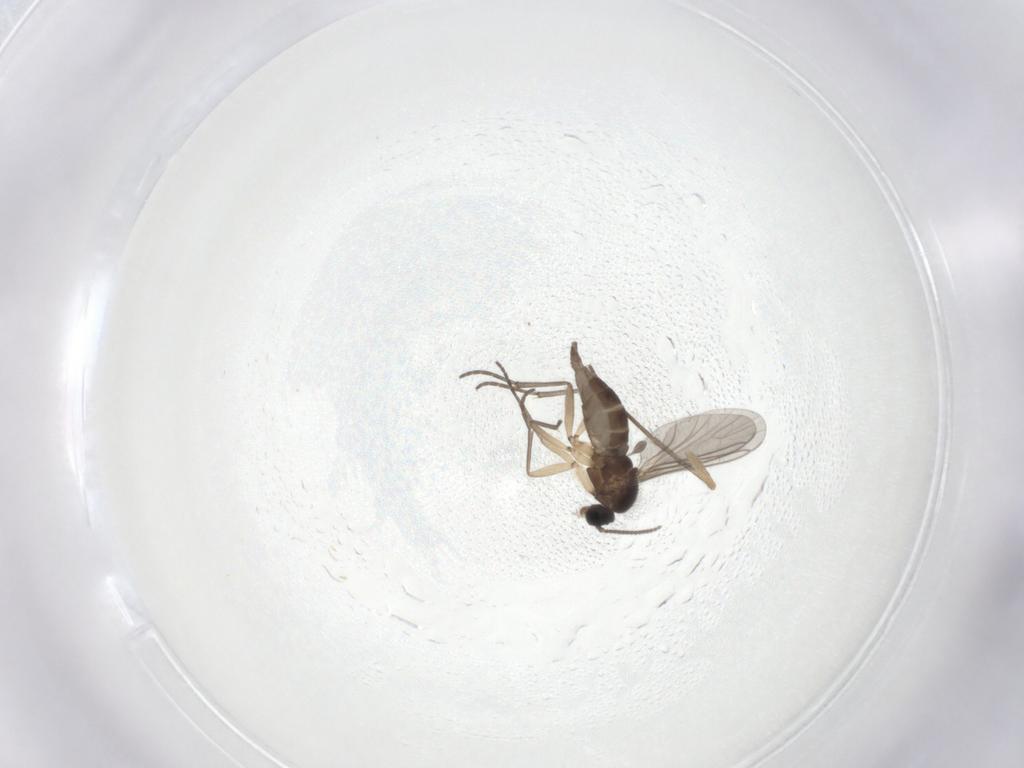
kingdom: Animalia
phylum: Arthropoda
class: Insecta
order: Diptera
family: Sciaridae
